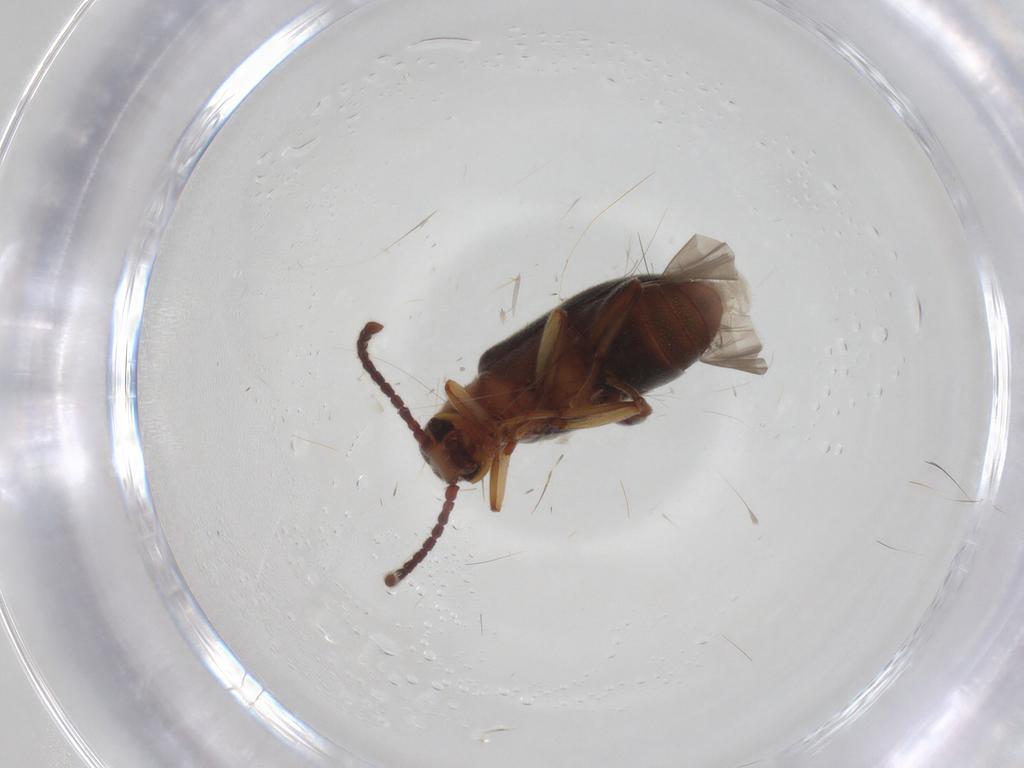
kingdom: Animalia
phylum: Arthropoda
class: Insecta
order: Coleoptera
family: Aderidae
